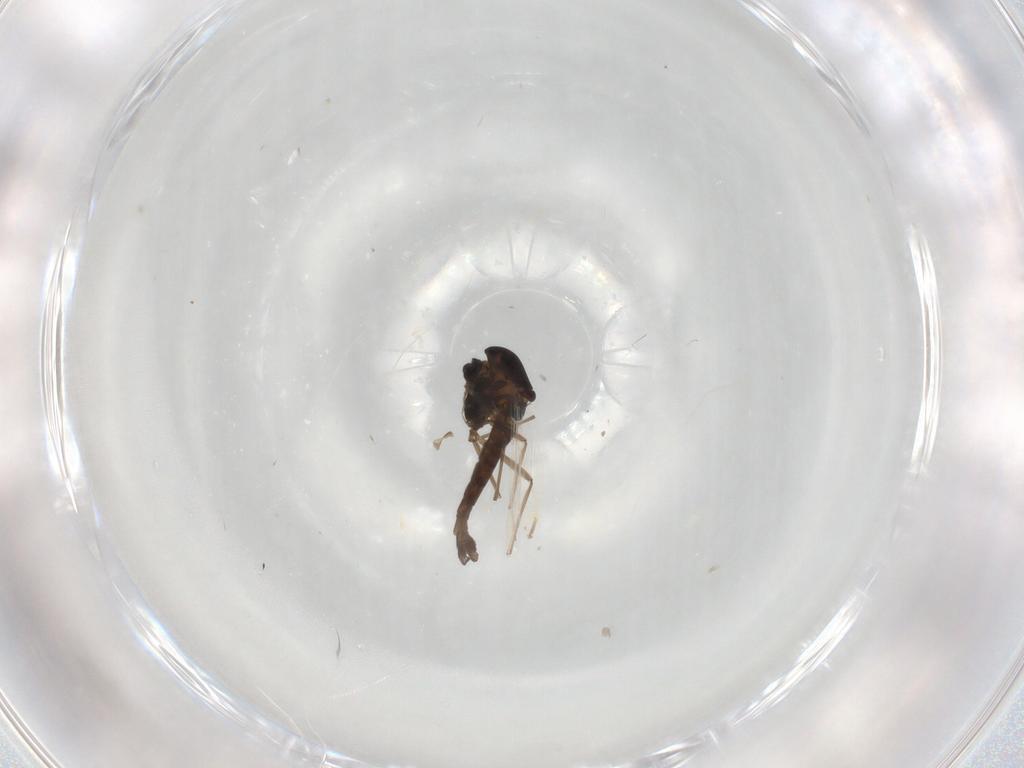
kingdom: Animalia
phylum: Arthropoda
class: Insecta
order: Diptera
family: Chironomidae
